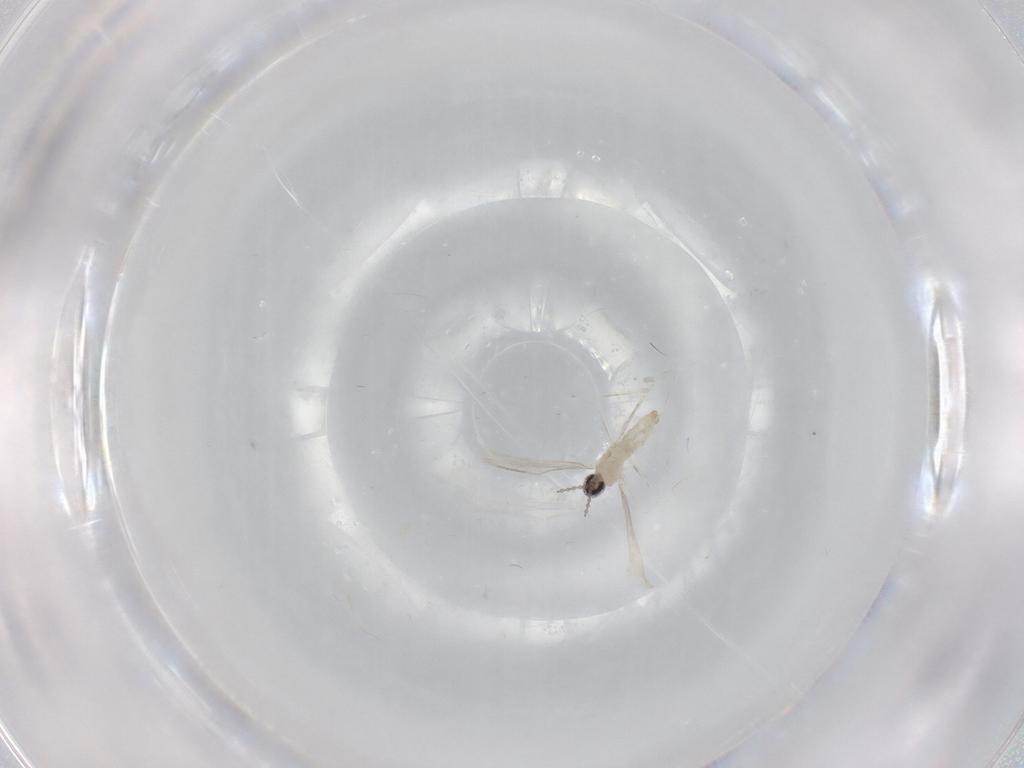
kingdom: Animalia
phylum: Arthropoda
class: Insecta
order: Diptera
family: Cecidomyiidae
